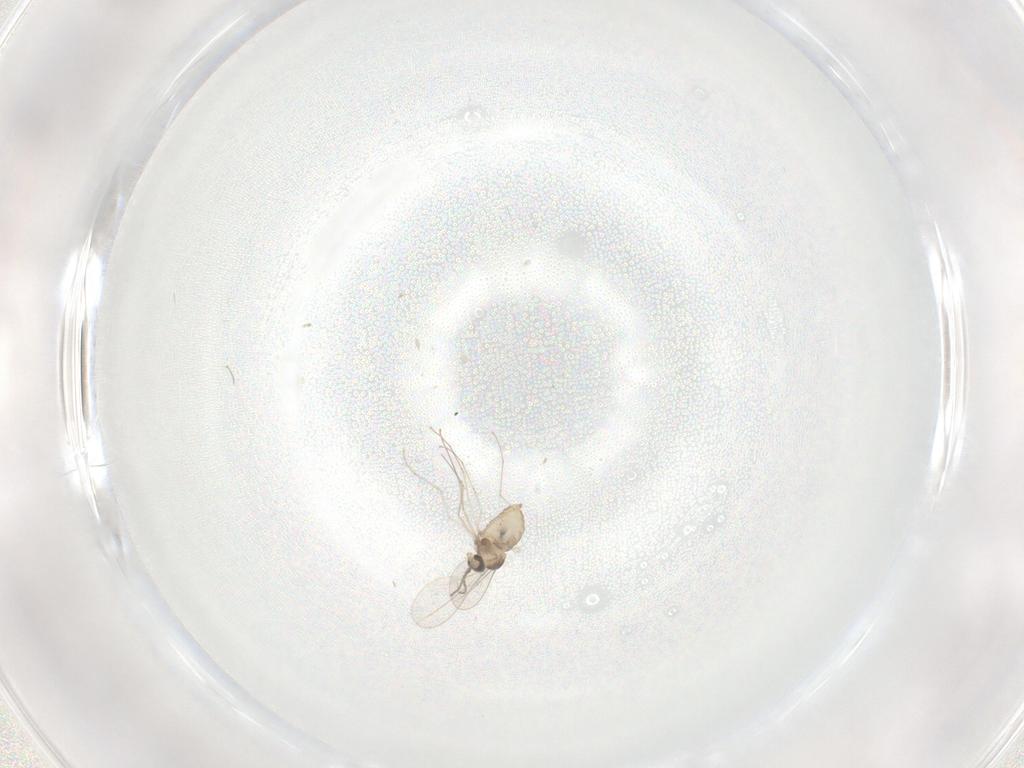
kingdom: Animalia
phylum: Arthropoda
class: Insecta
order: Diptera
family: Cecidomyiidae
